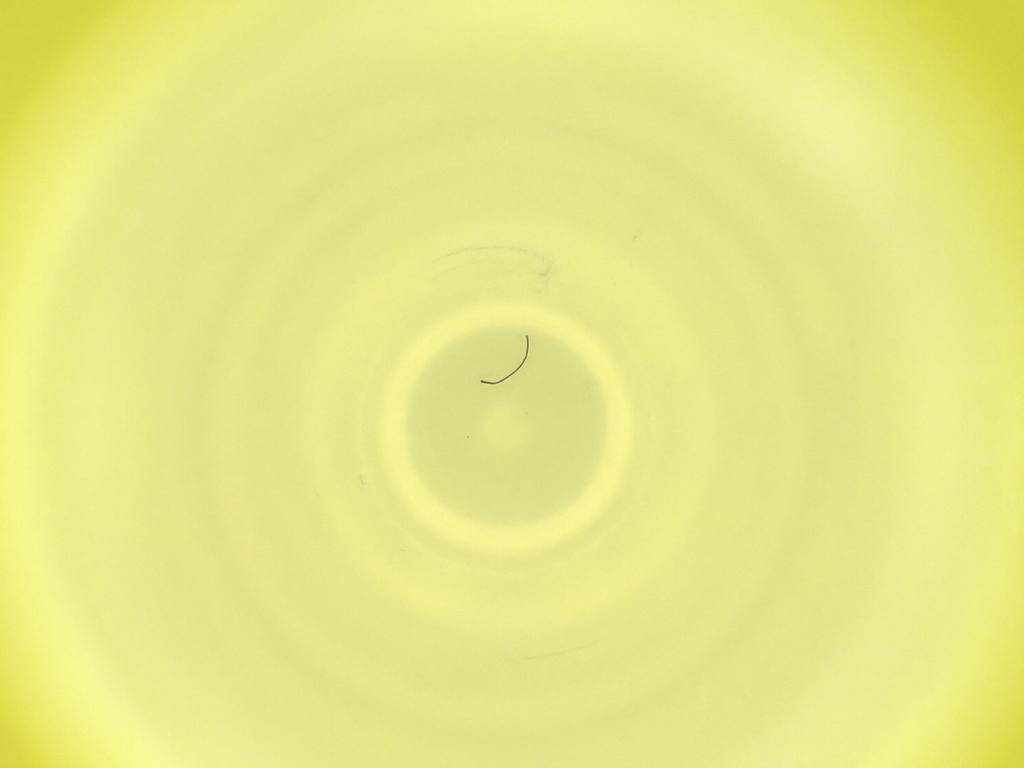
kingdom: Animalia
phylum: Arthropoda
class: Insecta
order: Diptera
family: Cecidomyiidae
